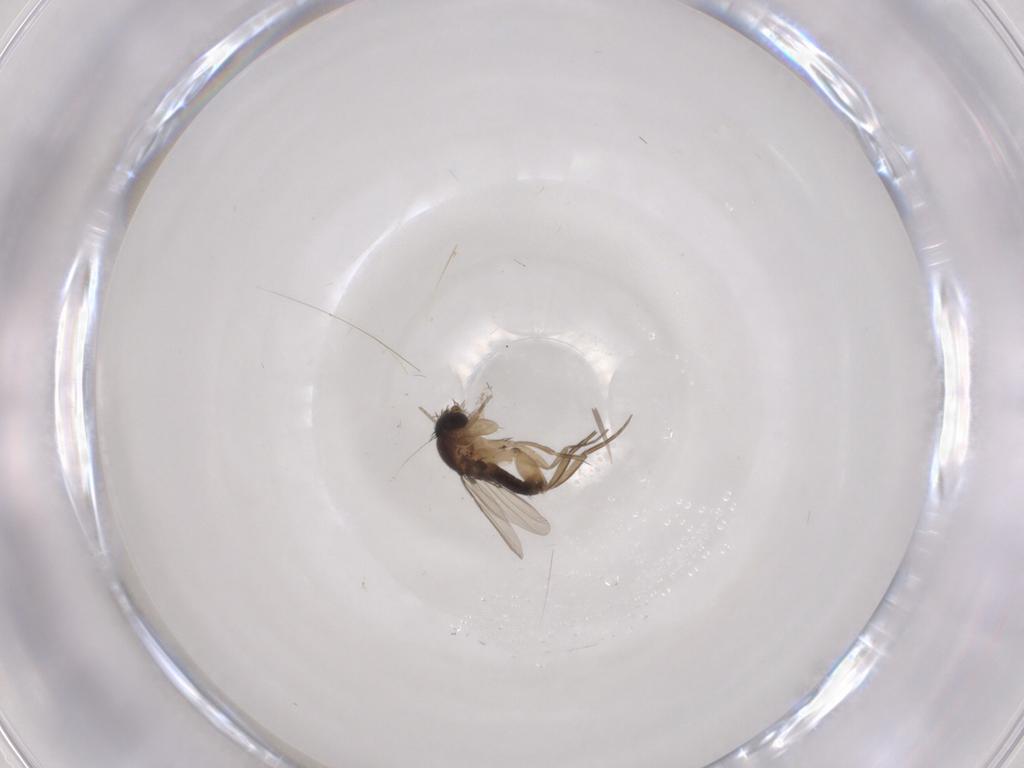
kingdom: Animalia
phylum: Arthropoda
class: Insecta
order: Diptera
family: Phoridae
